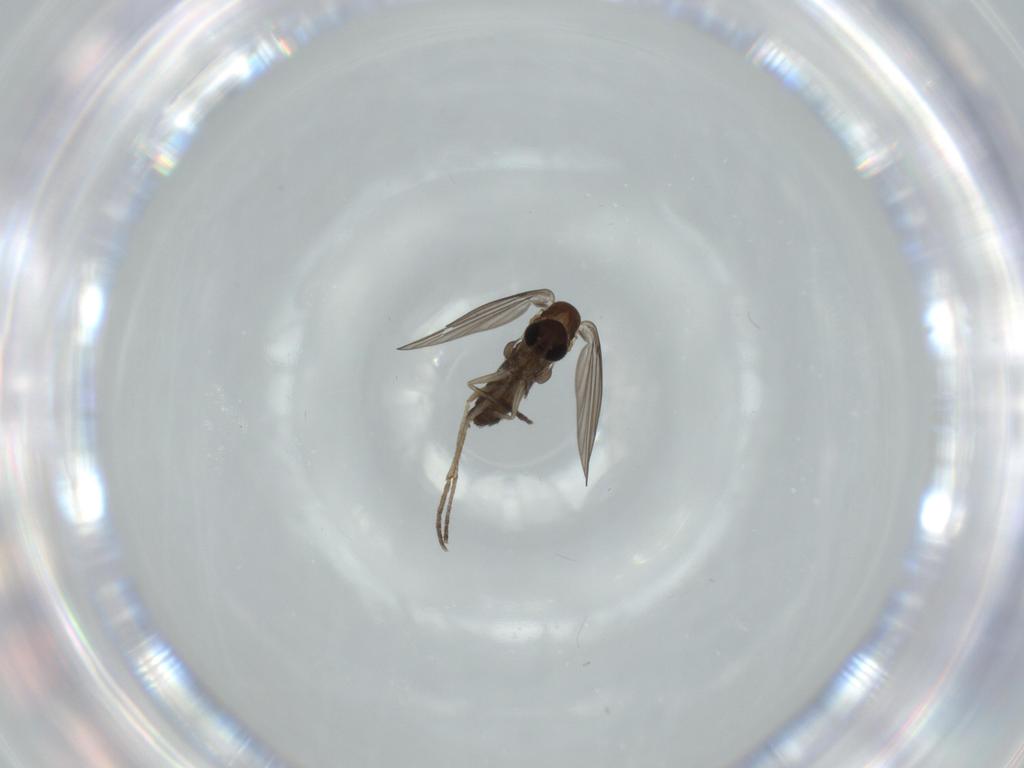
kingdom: Animalia
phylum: Arthropoda
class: Insecta
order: Diptera
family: Psychodidae
